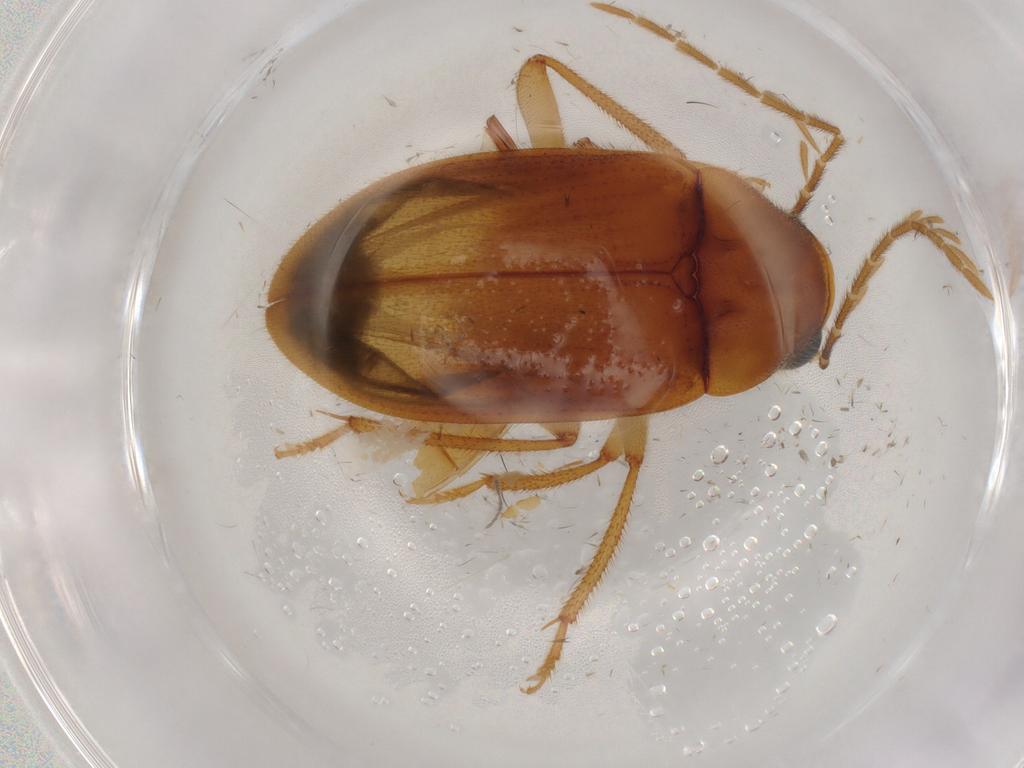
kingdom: Animalia
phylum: Arthropoda
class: Insecta
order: Coleoptera
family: Ptilodactylidae
